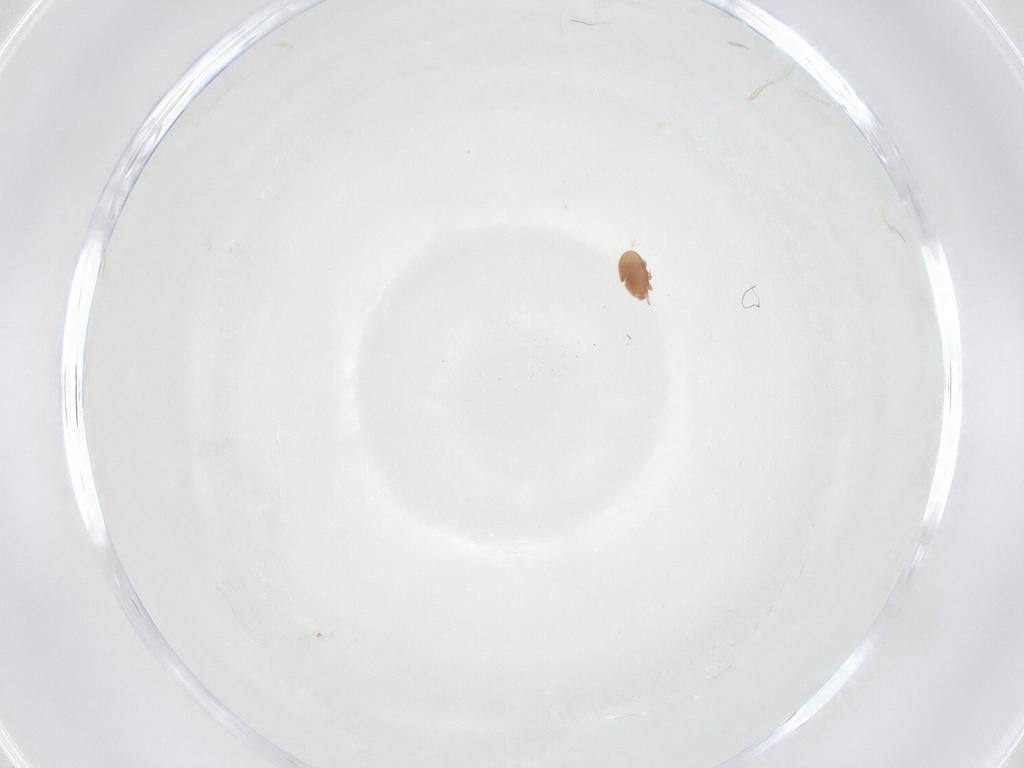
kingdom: Animalia
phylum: Arthropoda
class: Arachnida
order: Mesostigmata
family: Trematuridae
